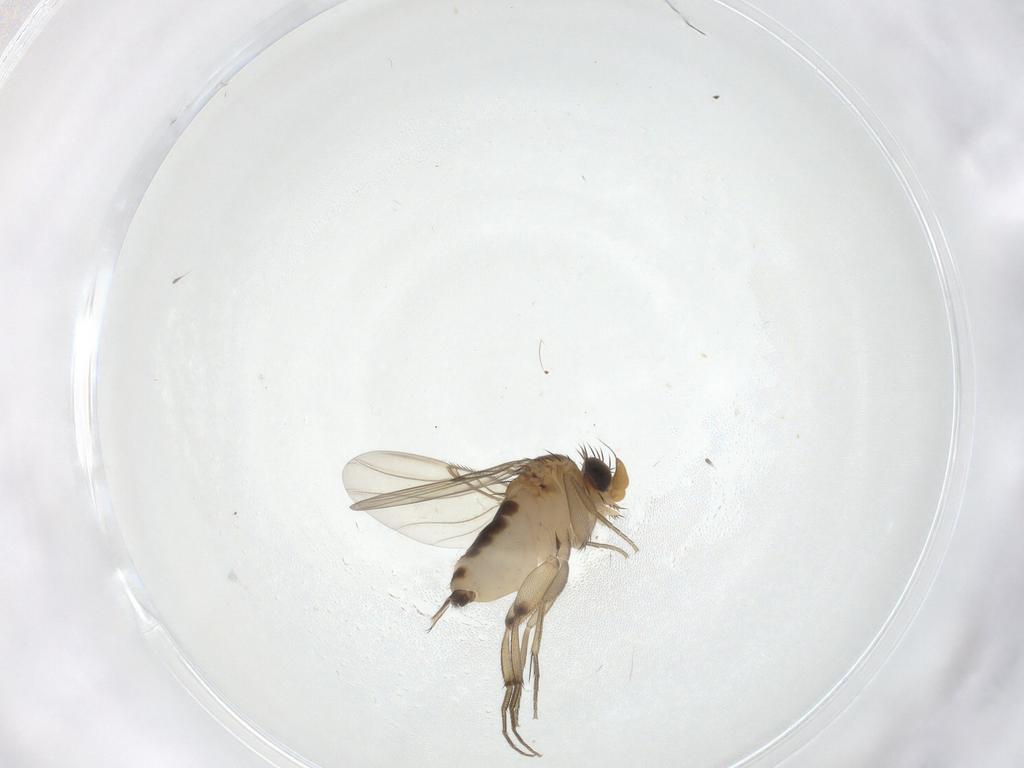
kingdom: Animalia
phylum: Arthropoda
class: Insecta
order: Diptera
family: Phoridae
